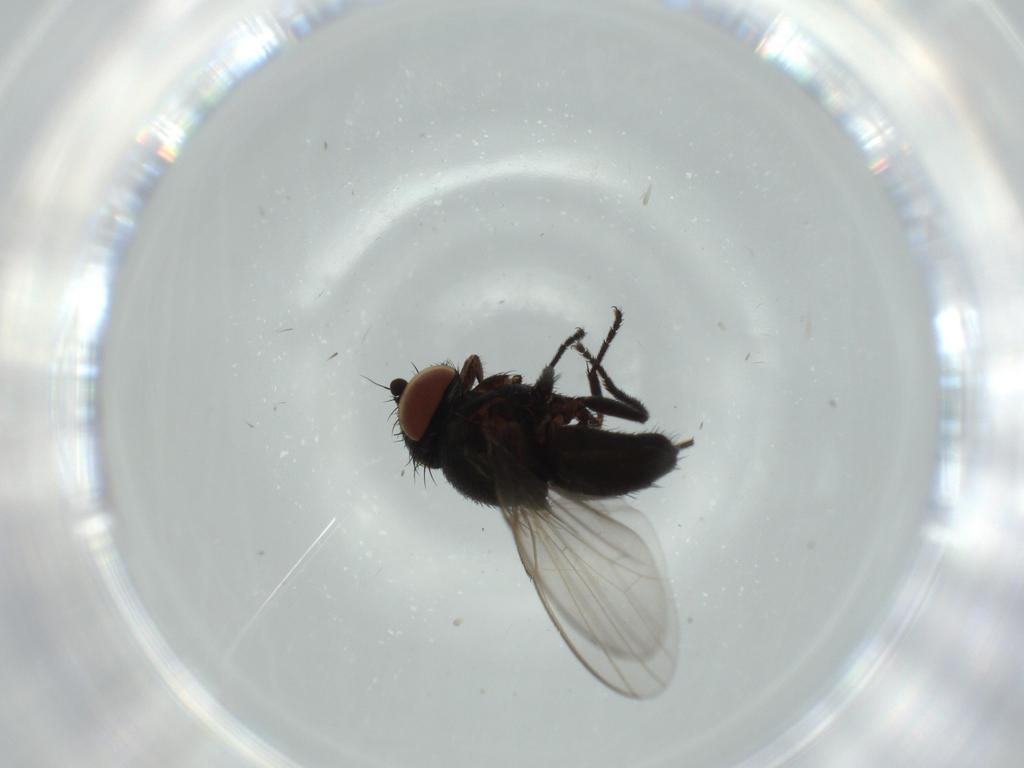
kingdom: Animalia
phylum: Arthropoda
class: Insecta
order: Diptera
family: Milichiidae
